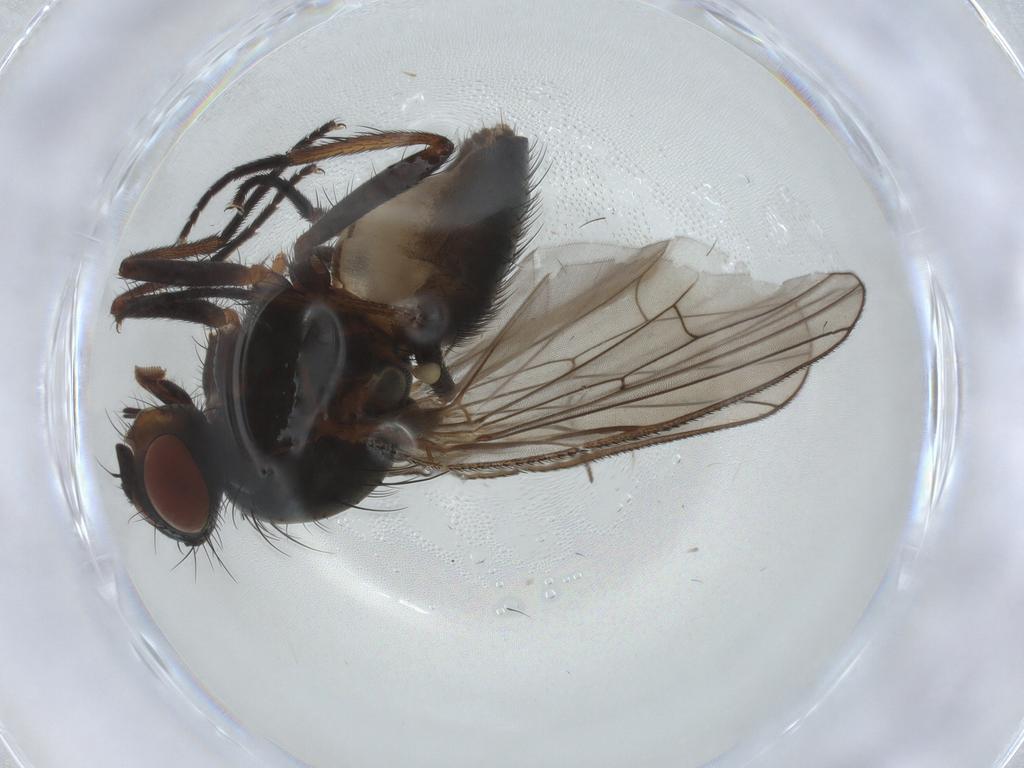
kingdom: Animalia
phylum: Arthropoda
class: Insecta
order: Diptera
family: Anthomyiidae
